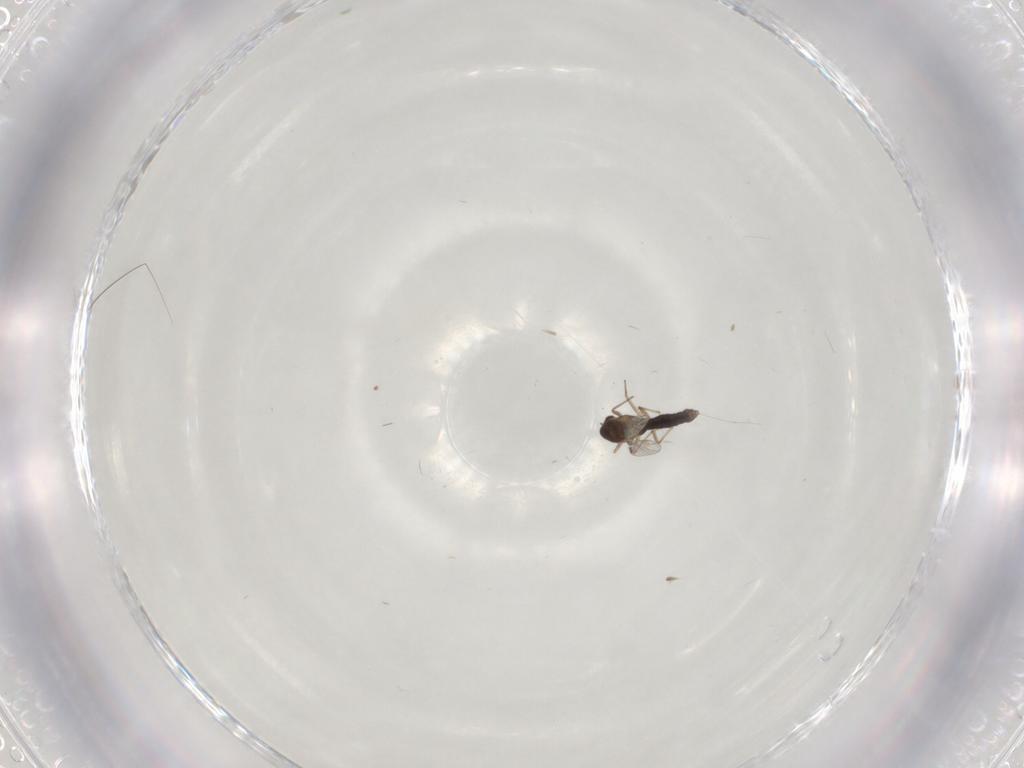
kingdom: Animalia
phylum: Arthropoda
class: Insecta
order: Diptera
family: Chironomidae
